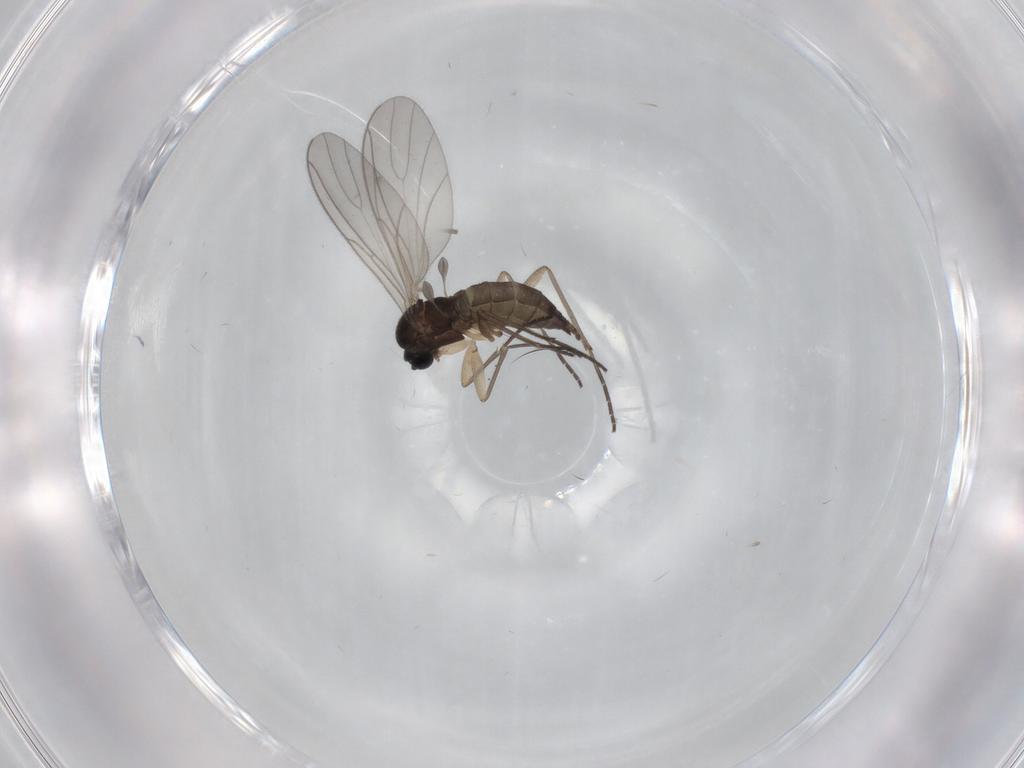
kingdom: Animalia
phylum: Arthropoda
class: Insecta
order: Diptera
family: Sciaridae
